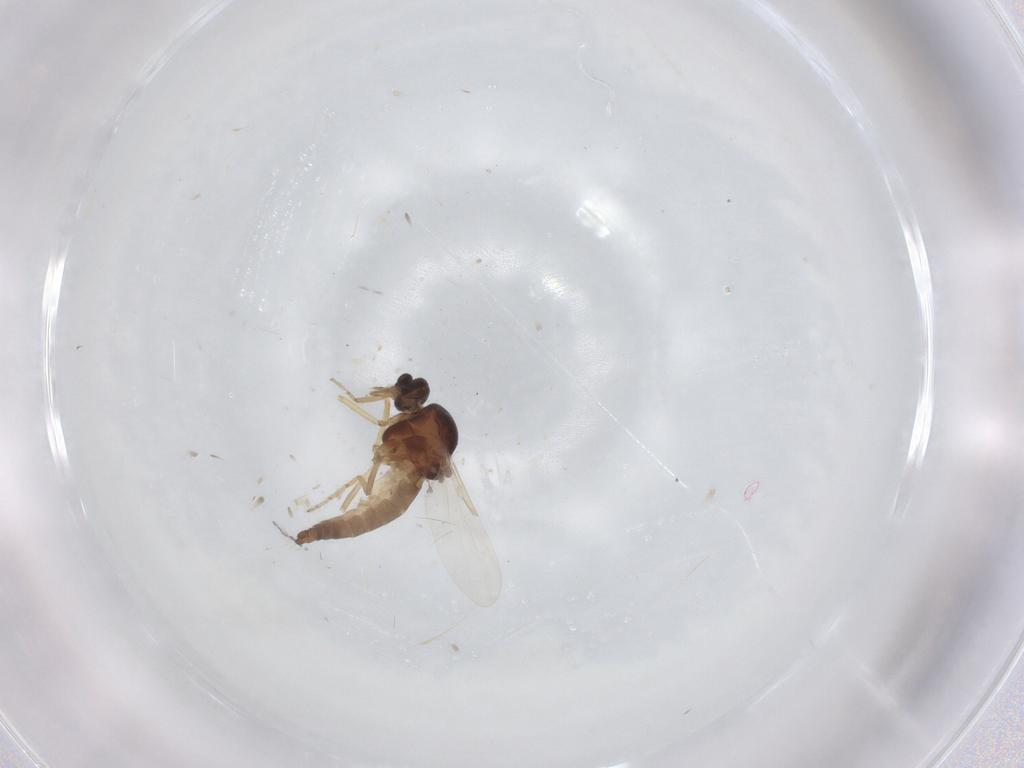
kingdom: Animalia
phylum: Arthropoda
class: Insecta
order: Diptera
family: Ceratopogonidae
